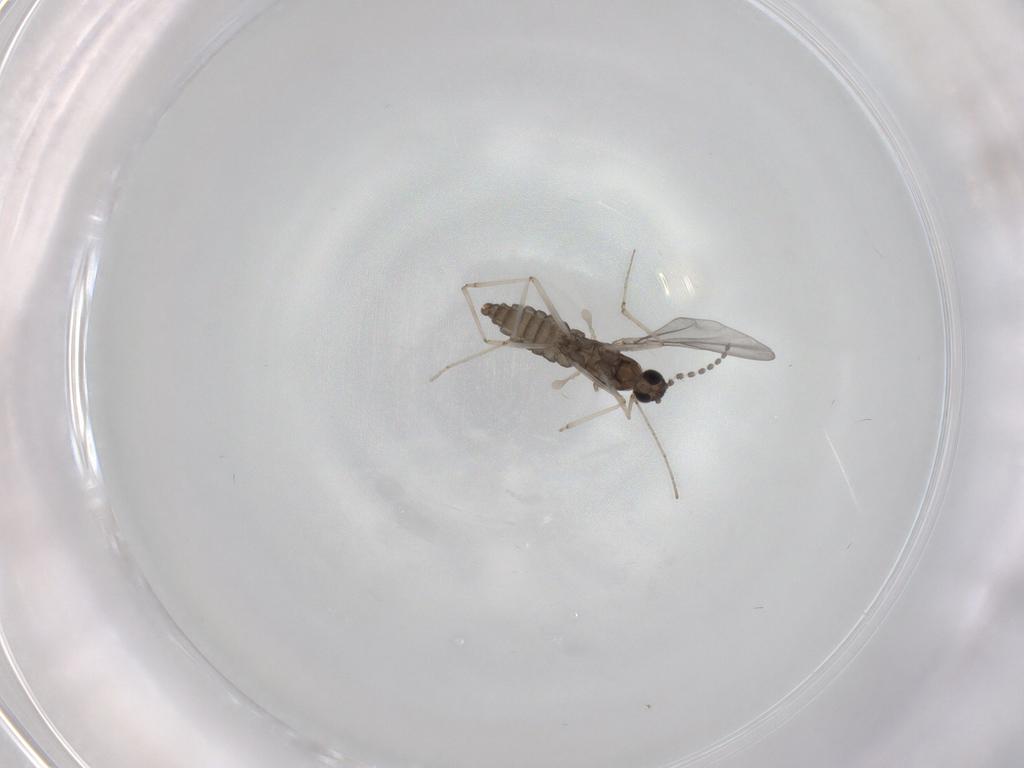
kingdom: Animalia
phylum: Arthropoda
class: Insecta
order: Diptera
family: Cecidomyiidae
